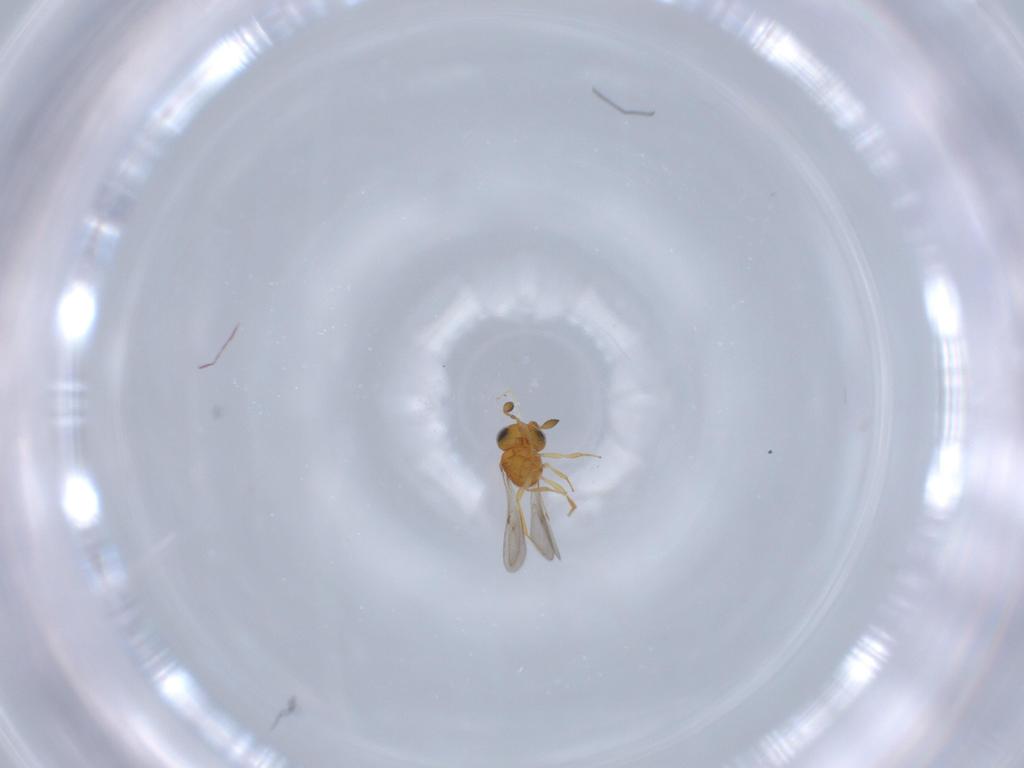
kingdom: Animalia
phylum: Arthropoda
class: Insecta
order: Hymenoptera
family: Scelionidae
